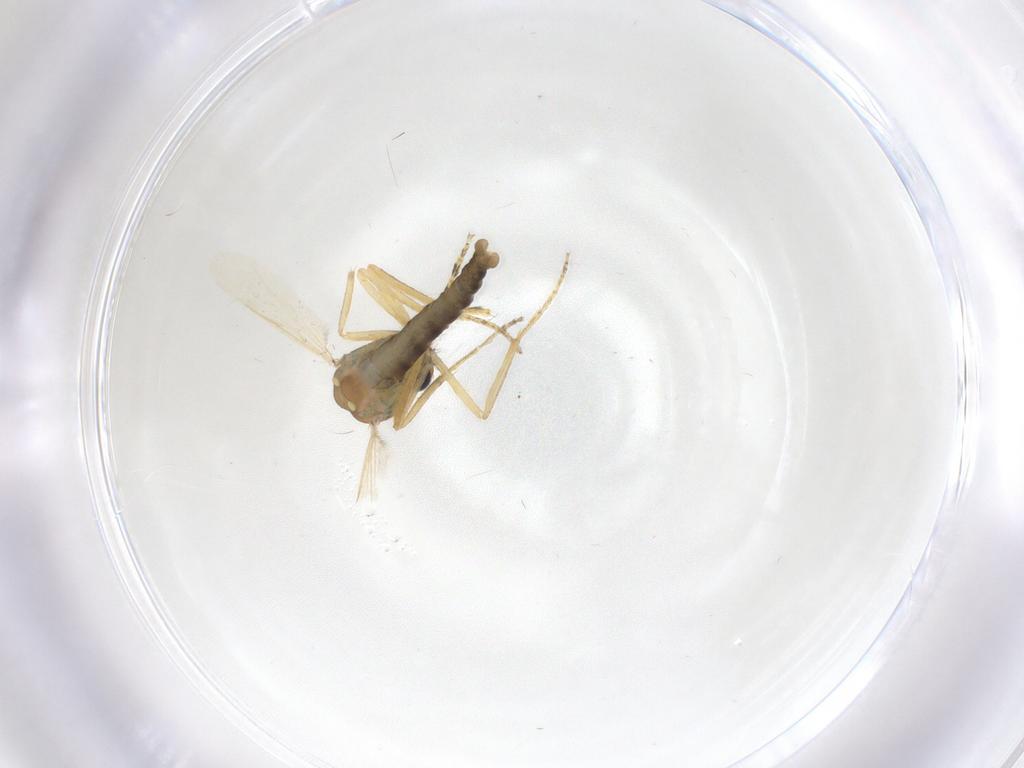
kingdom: Animalia
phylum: Arthropoda
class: Insecta
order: Diptera
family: Ceratopogonidae
